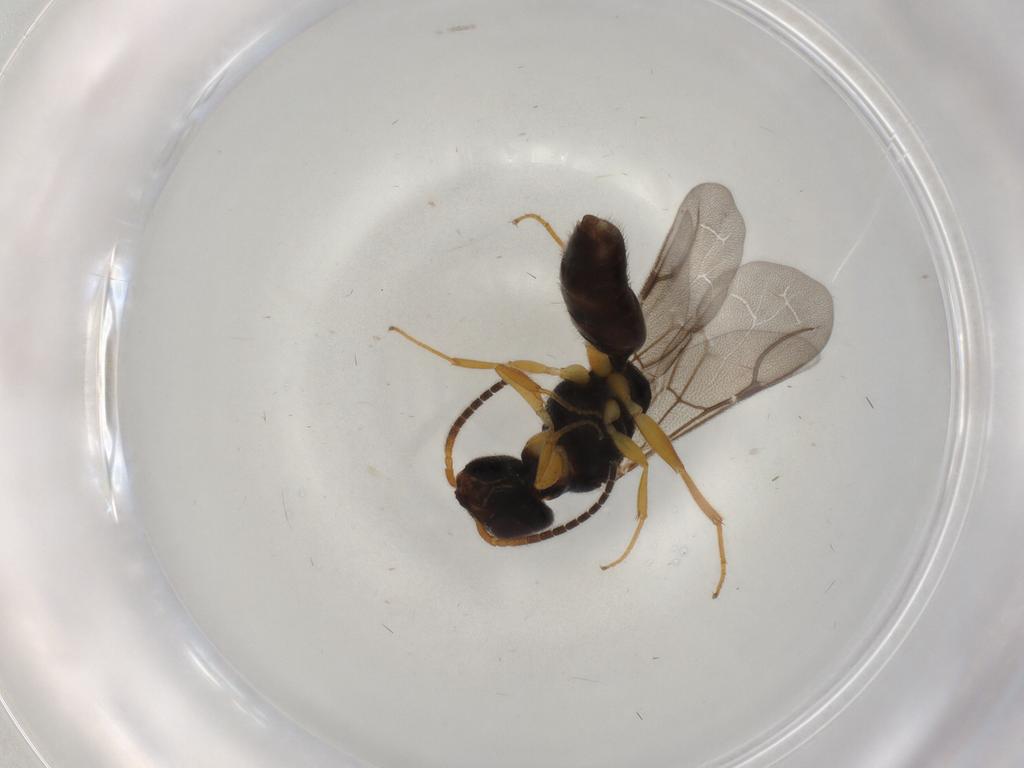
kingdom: Animalia
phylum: Arthropoda
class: Insecta
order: Hymenoptera
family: Bethylidae
